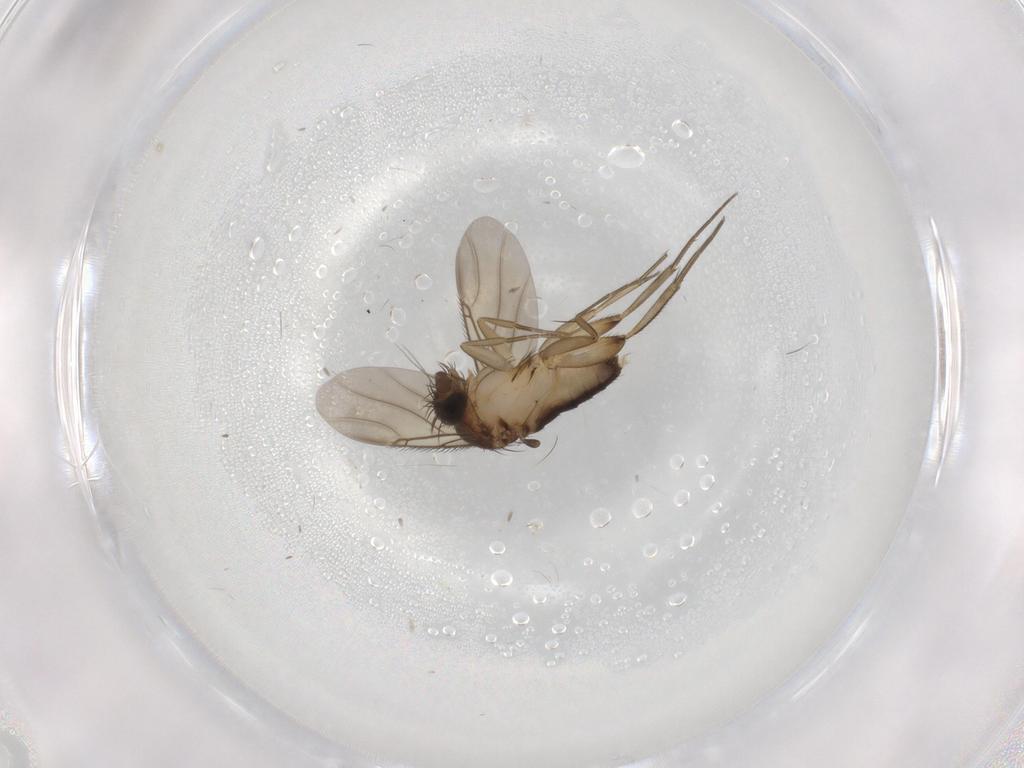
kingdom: Animalia
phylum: Arthropoda
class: Insecta
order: Diptera
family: Phoridae
